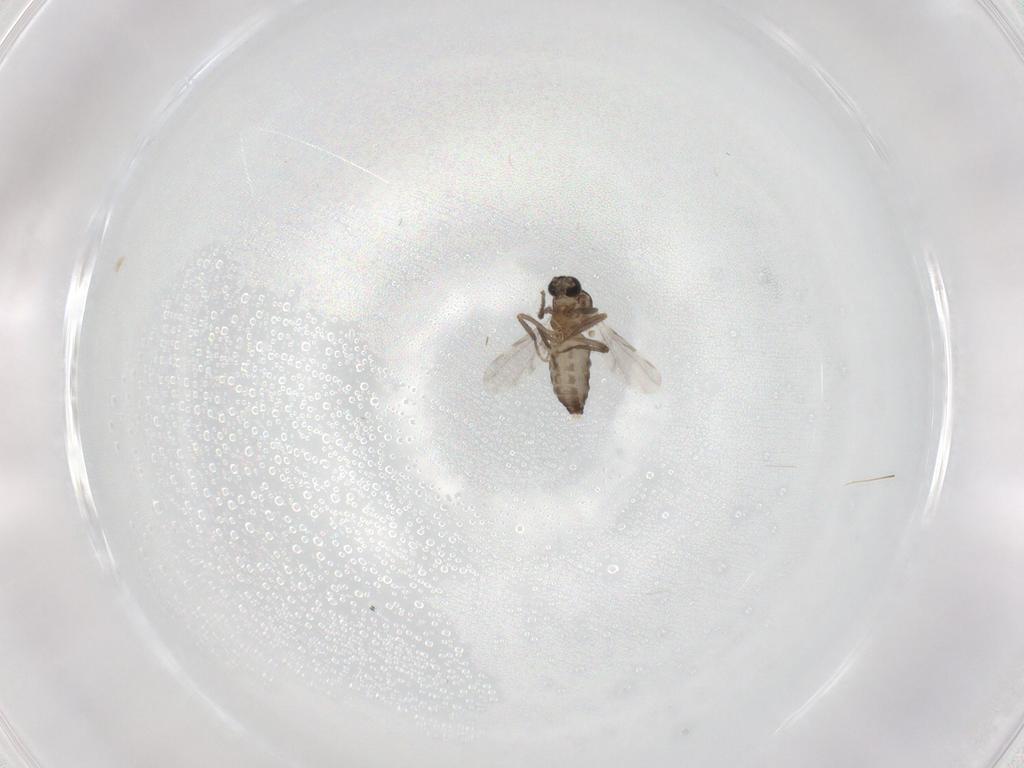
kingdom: Animalia
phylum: Arthropoda
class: Insecta
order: Diptera
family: Ceratopogonidae
